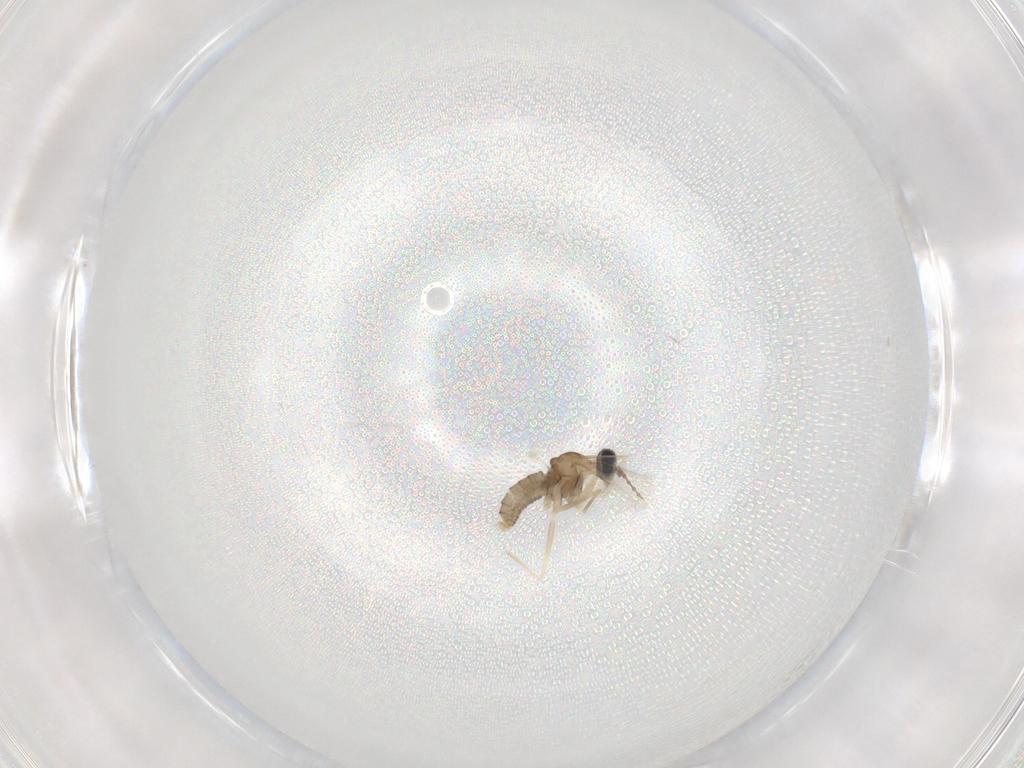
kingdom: Animalia
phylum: Arthropoda
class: Insecta
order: Diptera
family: Cecidomyiidae
